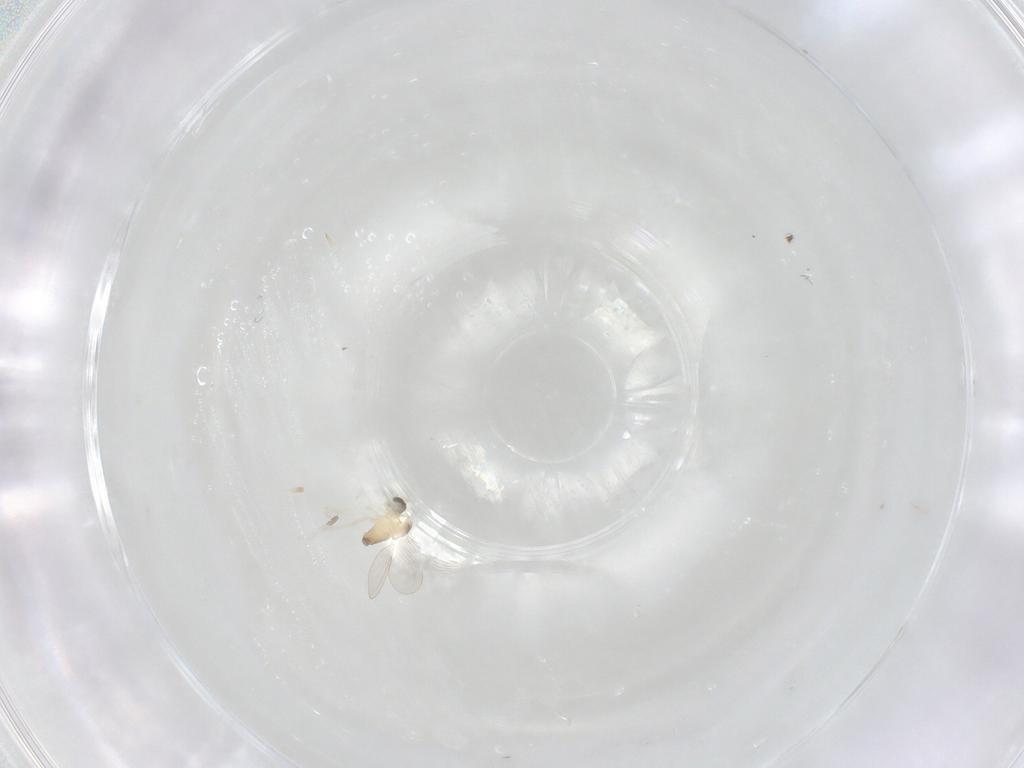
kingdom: Animalia
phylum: Arthropoda
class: Insecta
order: Diptera
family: Cecidomyiidae
